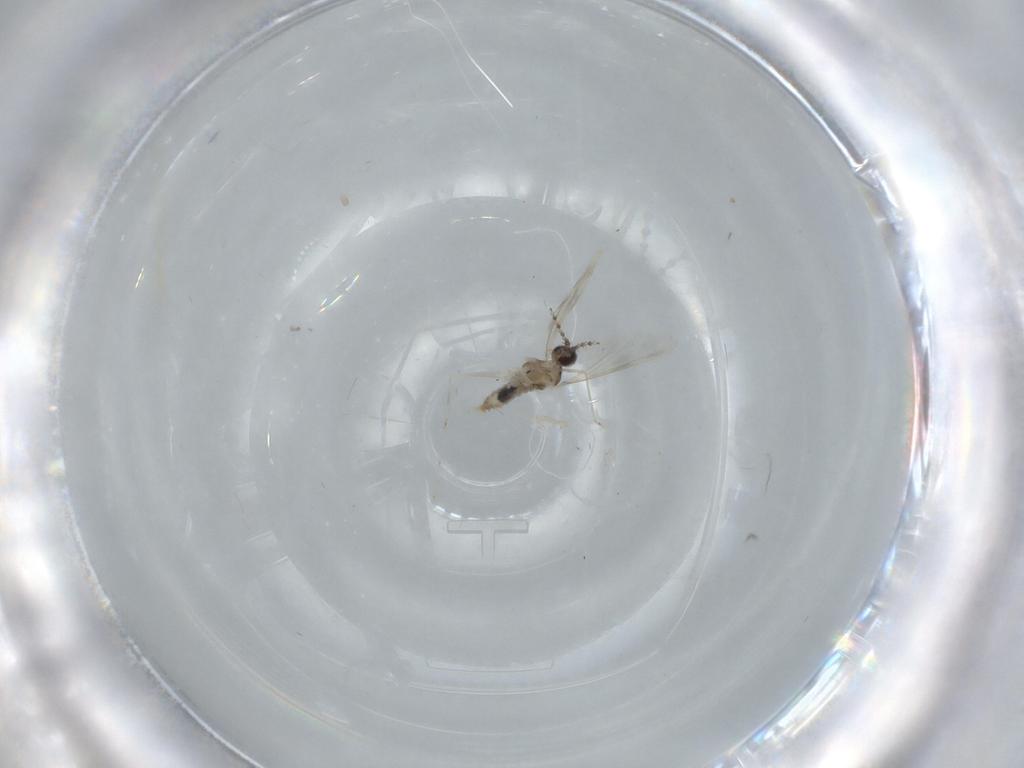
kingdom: Animalia
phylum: Arthropoda
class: Insecta
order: Diptera
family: Cecidomyiidae
